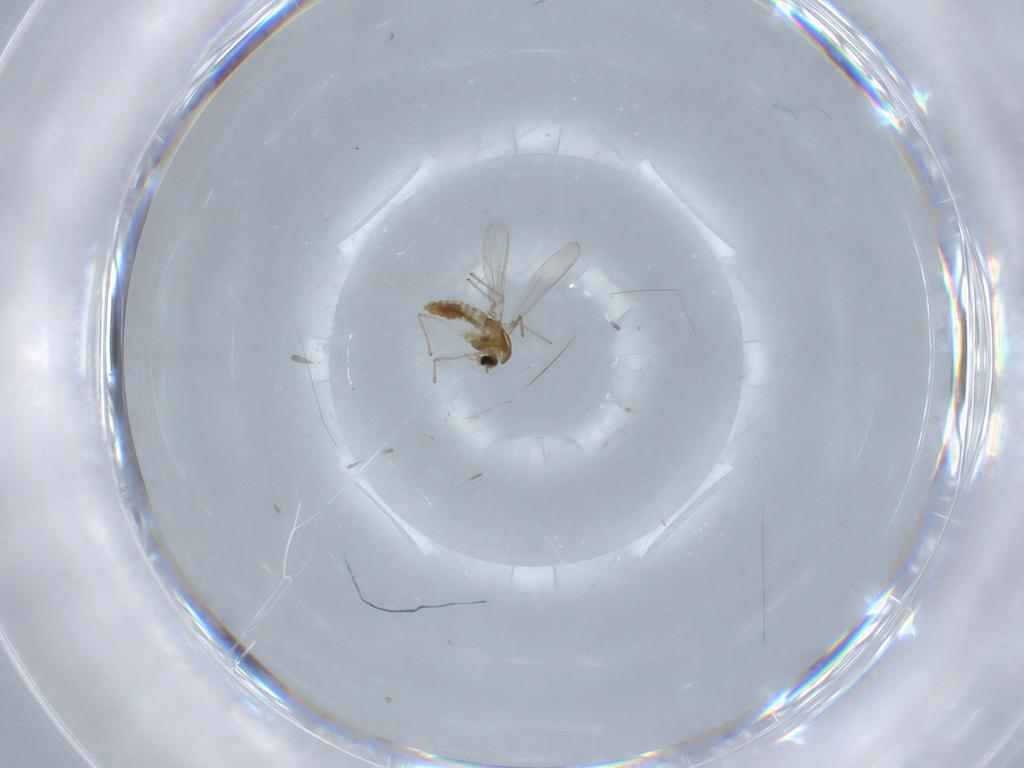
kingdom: Animalia
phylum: Arthropoda
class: Insecta
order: Diptera
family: Chironomidae
